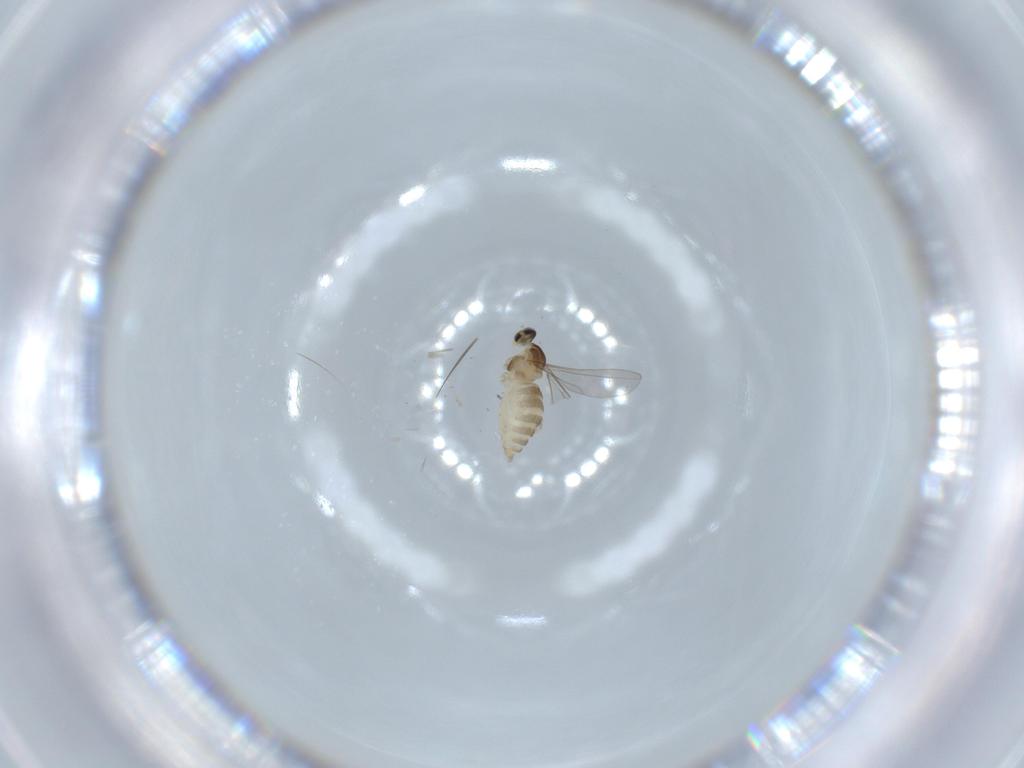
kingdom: Animalia
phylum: Arthropoda
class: Insecta
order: Diptera
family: Cecidomyiidae
